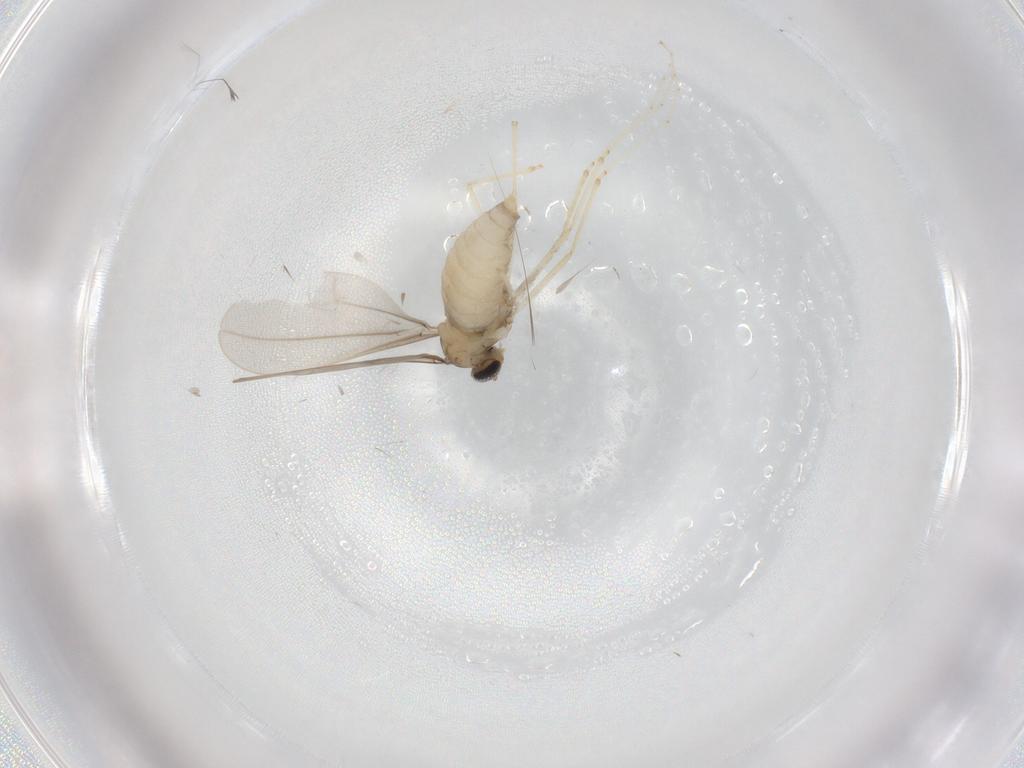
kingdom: Animalia
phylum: Arthropoda
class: Insecta
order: Diptera
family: Cecidomyiidae
